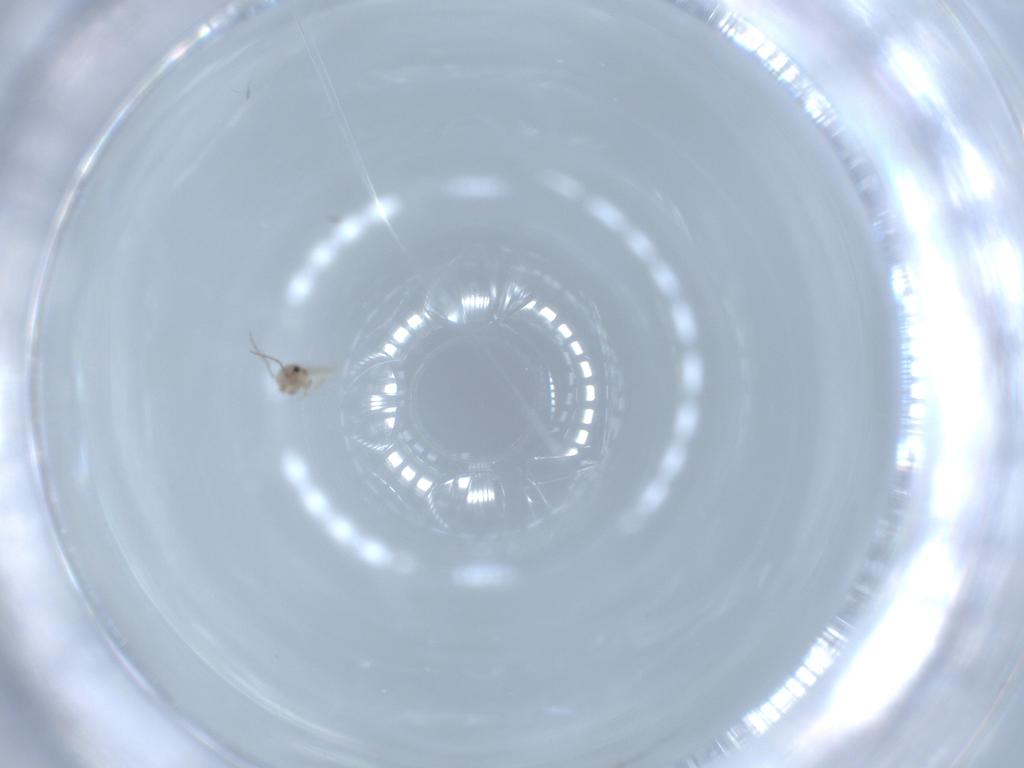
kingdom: Animalia
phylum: Arthropoda
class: Insecta
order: Psocodea
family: Lepidopsocidae
